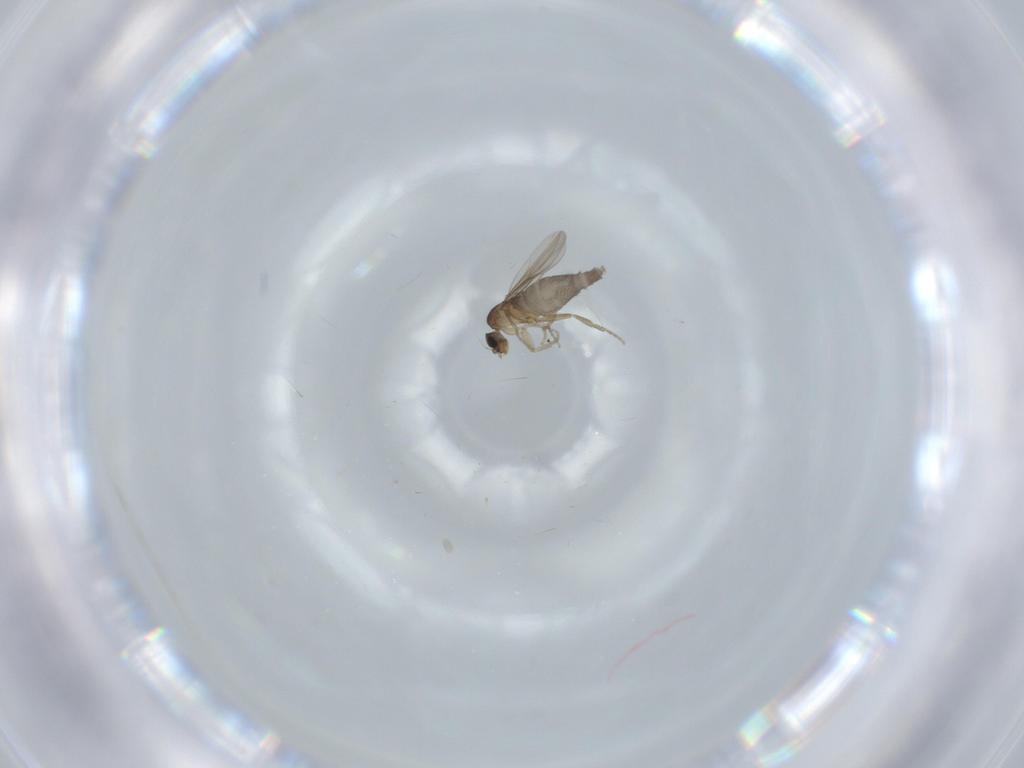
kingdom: Animalia
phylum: Arthropoda
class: Insecta
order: Diptera
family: Phoridae
